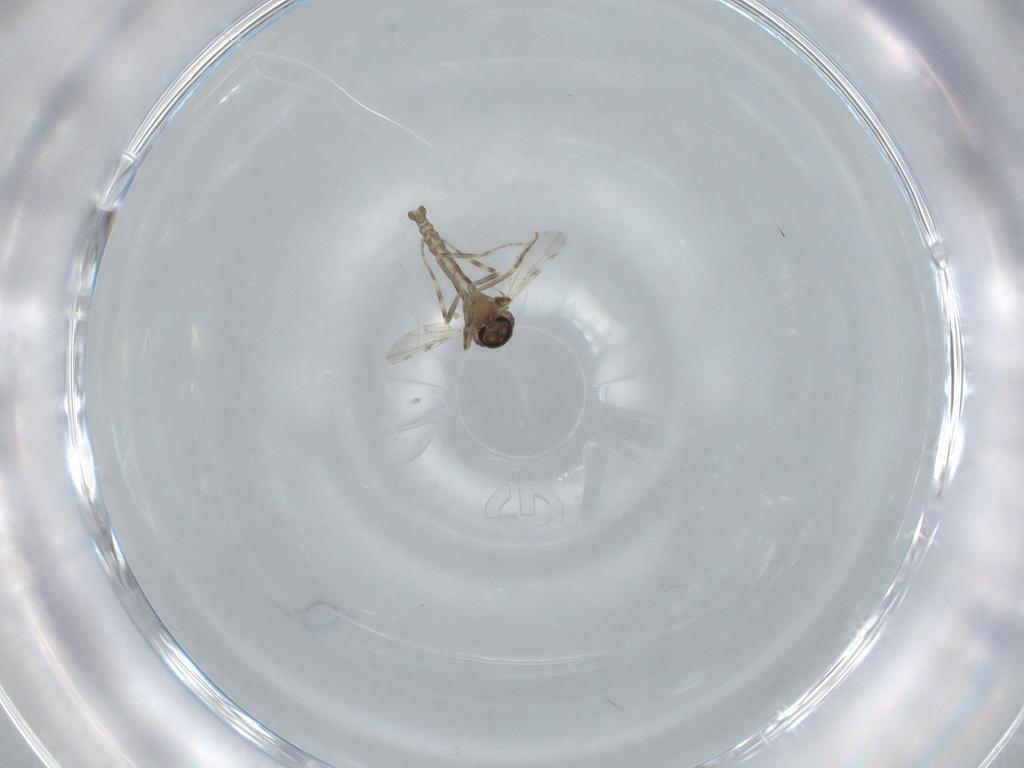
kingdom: Animalia
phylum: Arthropoda
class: Insecta
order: Diptera
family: Ceratopogonidae
